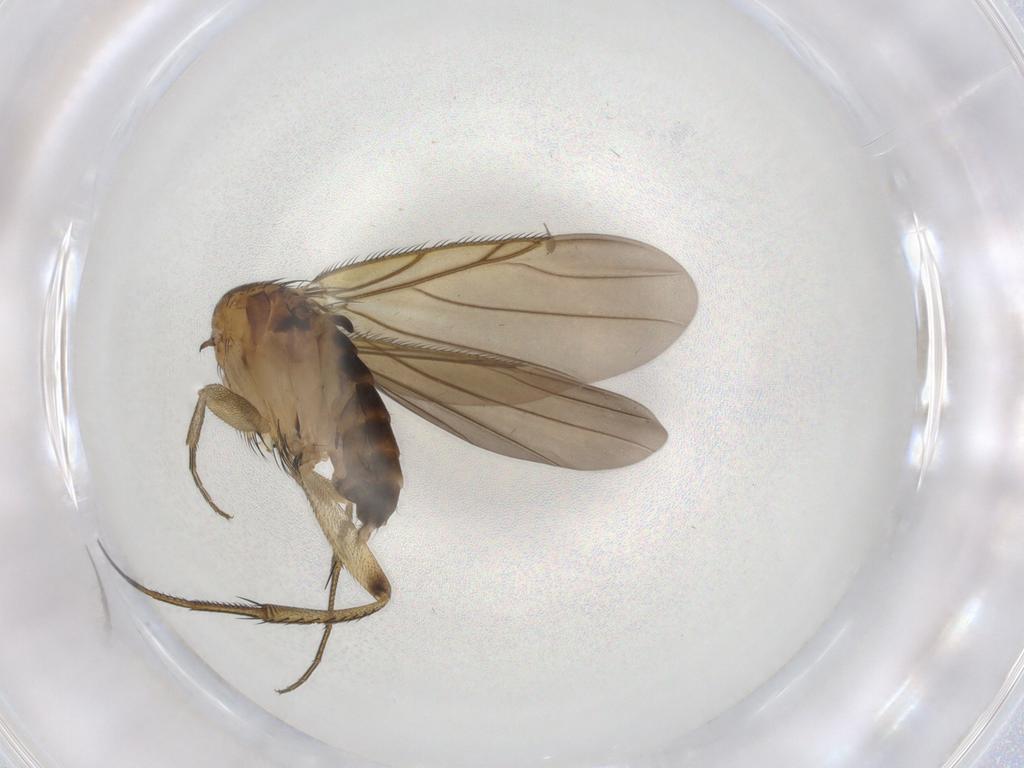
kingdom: Animalia
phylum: Arthropoda
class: Insecta
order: Diptera
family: Phoridae
